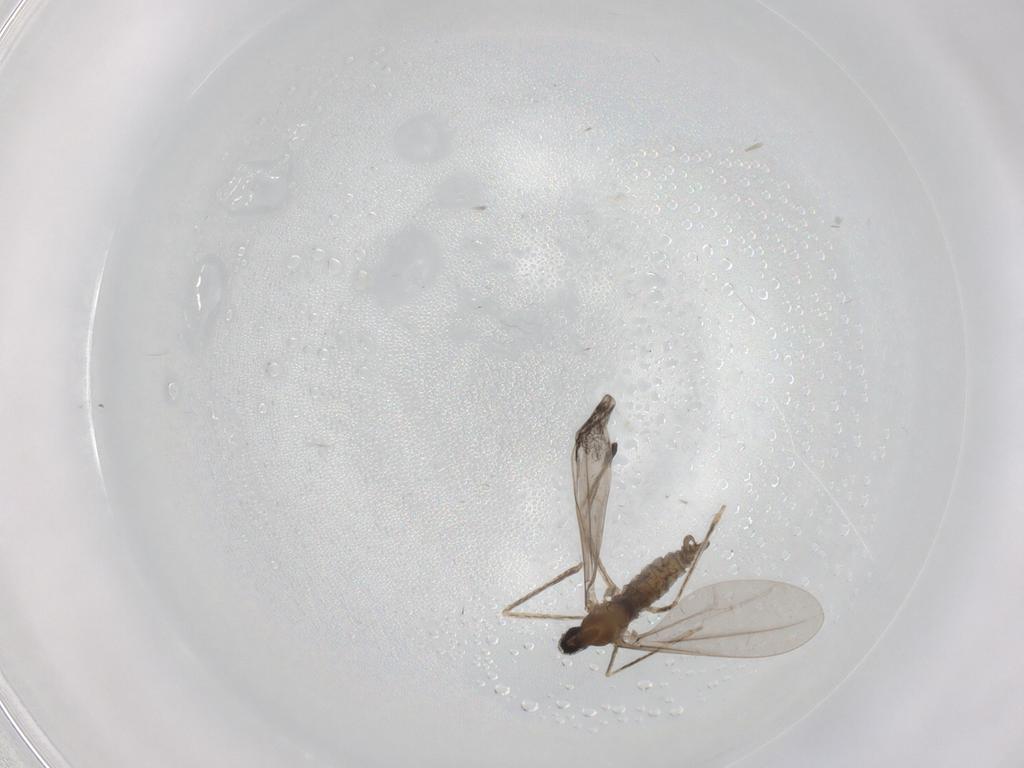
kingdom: Animalia
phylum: Arthropoda
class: Insecta
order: Diptera
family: Cecidomyiidae
